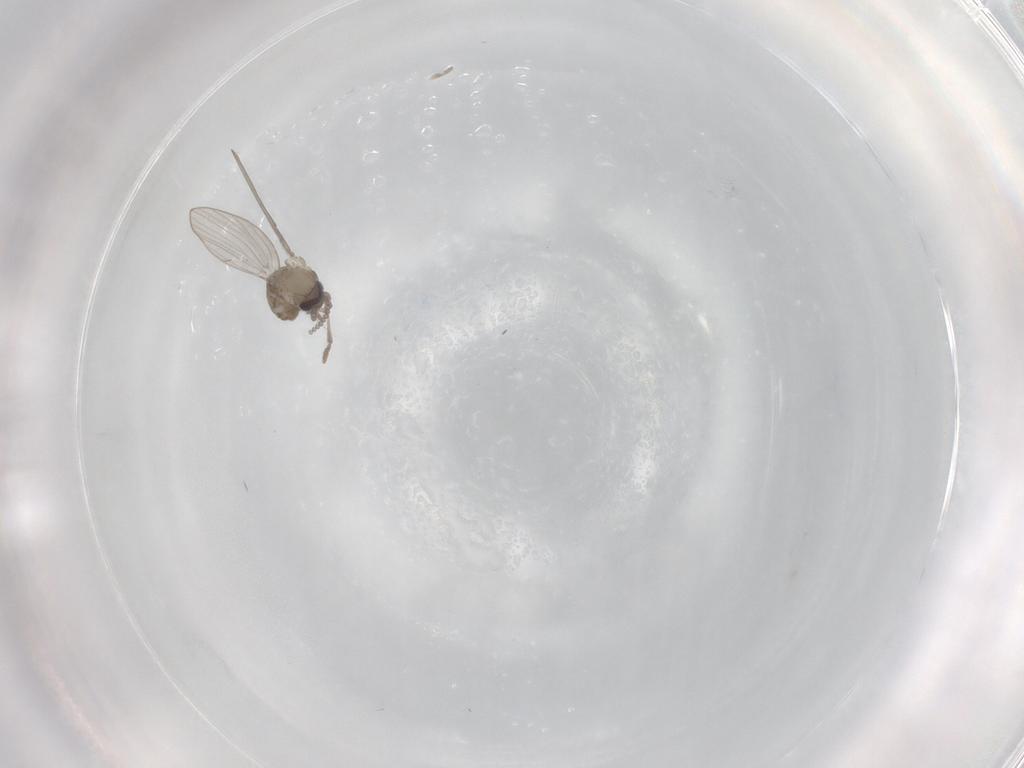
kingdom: Animalia
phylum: Arthropoda
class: Insecta
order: Diptera
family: Cecidomyiidae
